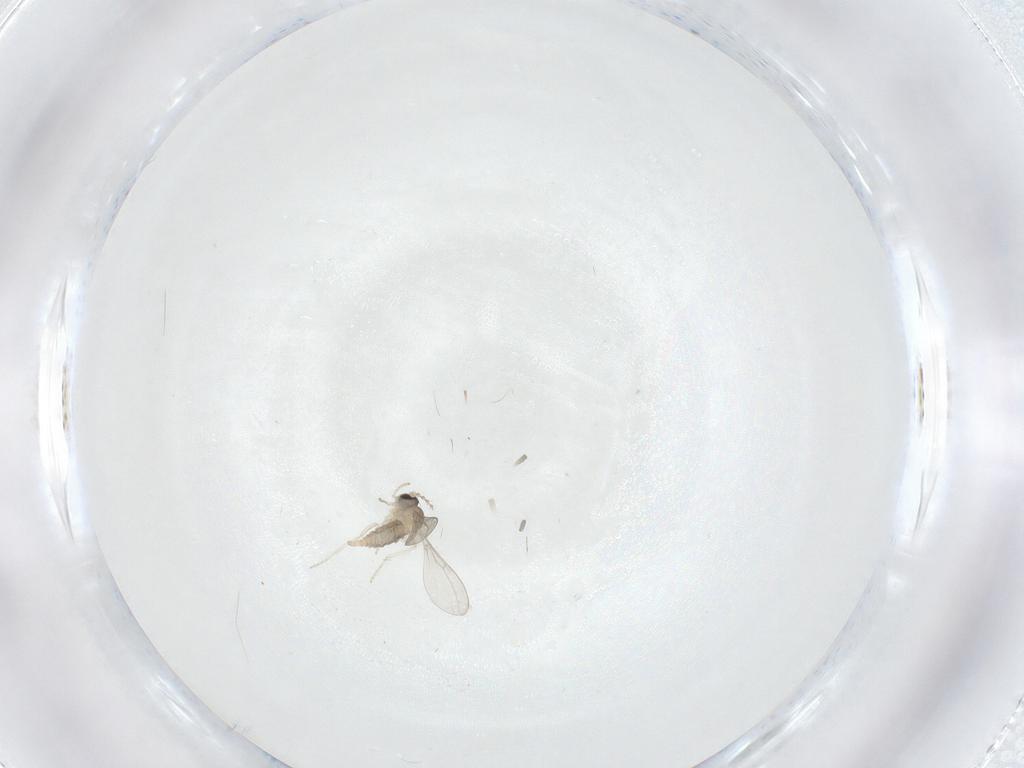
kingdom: Animalia
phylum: Arthropoda
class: Insecta
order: Diptera
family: Cecidomyiidae
